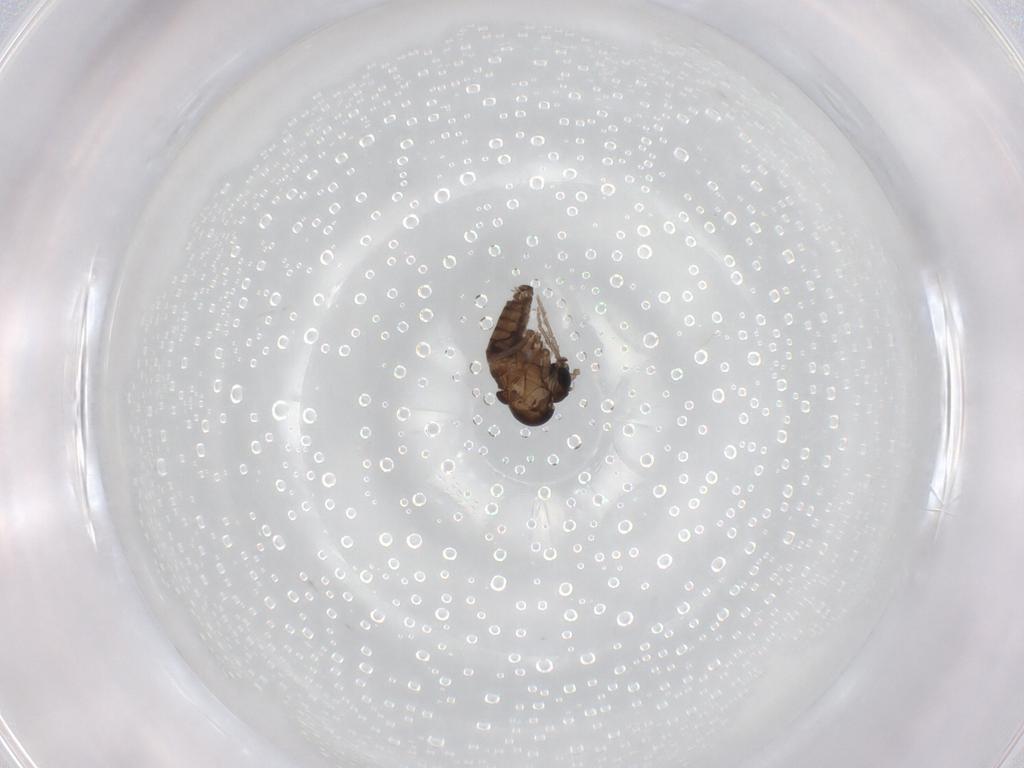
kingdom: Animalia
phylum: Arthropoda
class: Insecta
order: Diptera
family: Psychodidae
